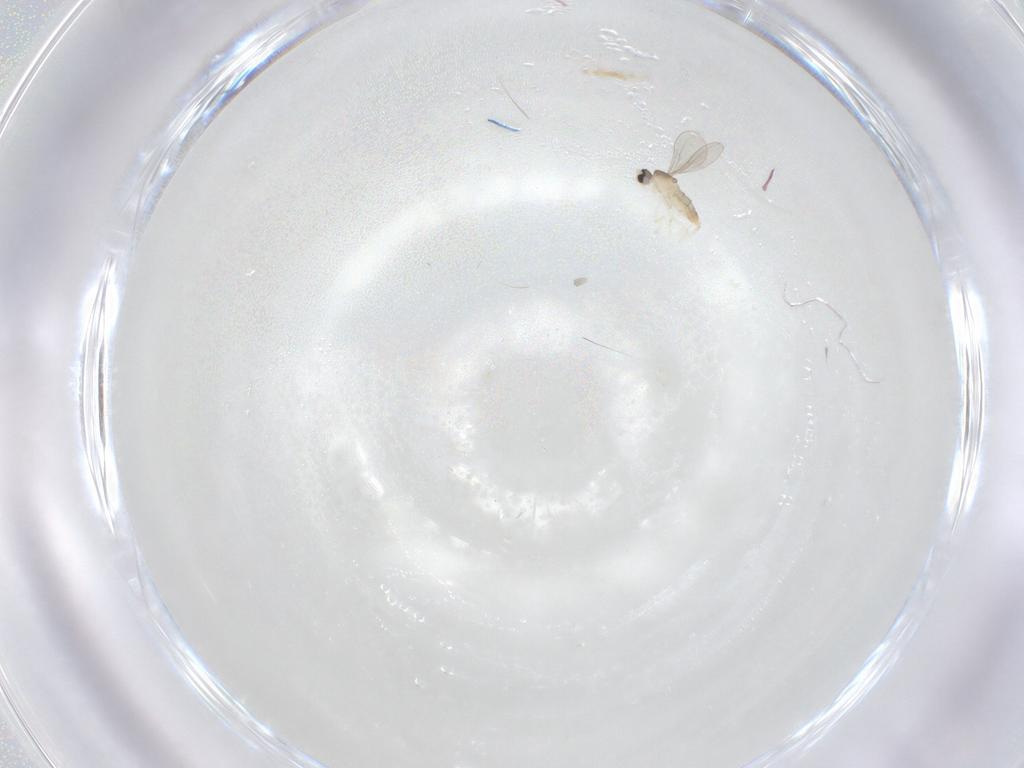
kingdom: Animalia
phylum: Arthropoda
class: Insecta
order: Diptera
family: Cecidomyiidae
